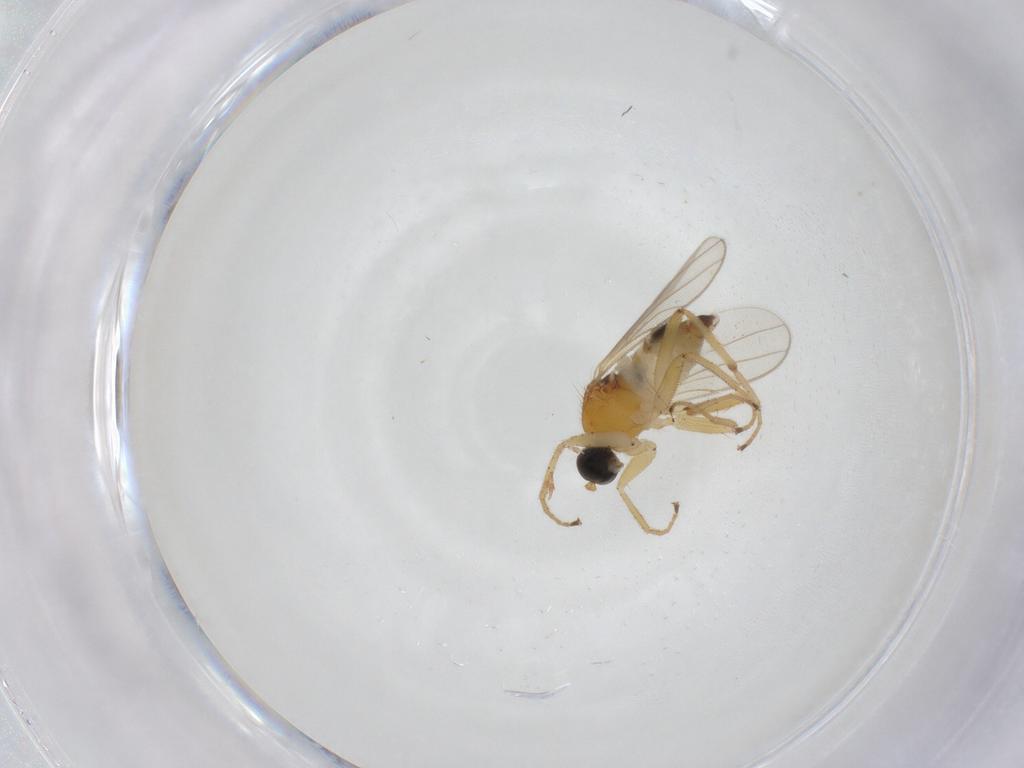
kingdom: Animalia
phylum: Arthropoda
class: Insecta
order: Diptera
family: Hybotidae
